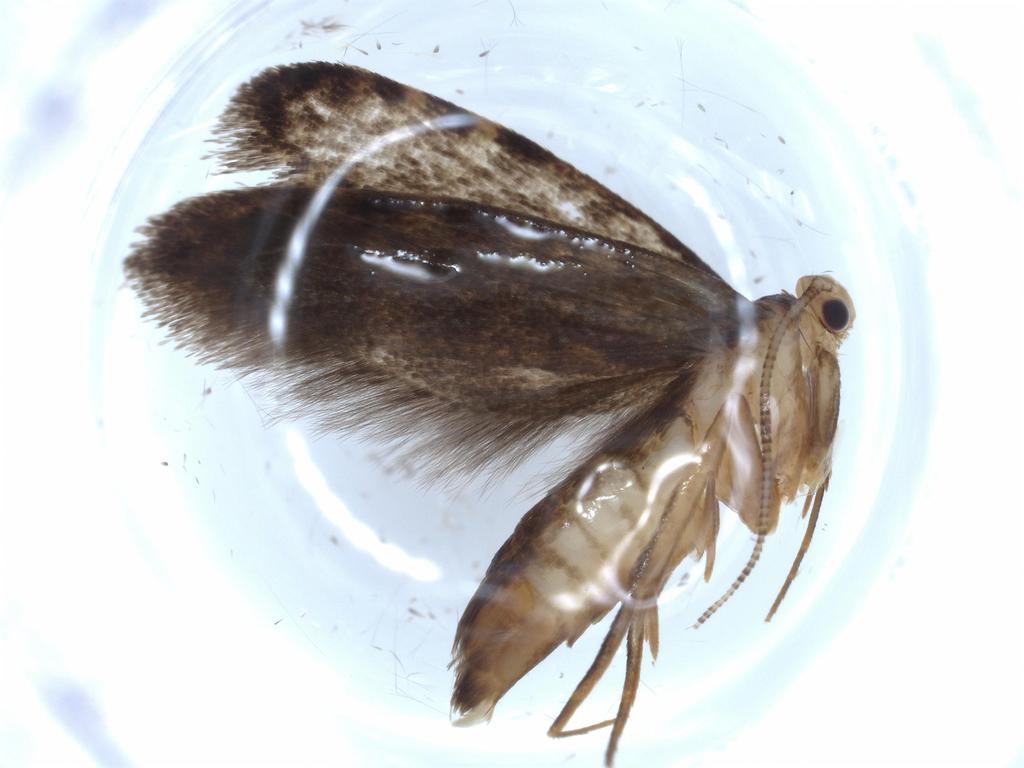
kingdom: Animalia
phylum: Arthropoda
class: Insecta
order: Lepidoptera
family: Tineidae
